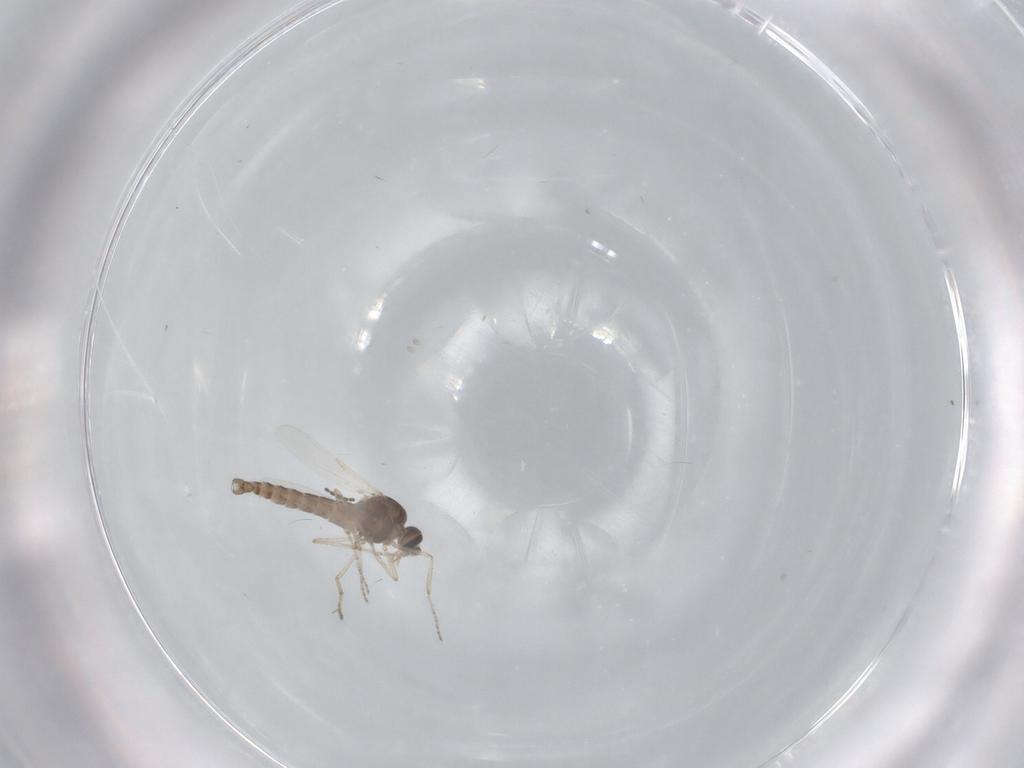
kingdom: Animalia
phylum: Arthropoda
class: Insecta
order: Diptera
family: Ceratopogonidae
